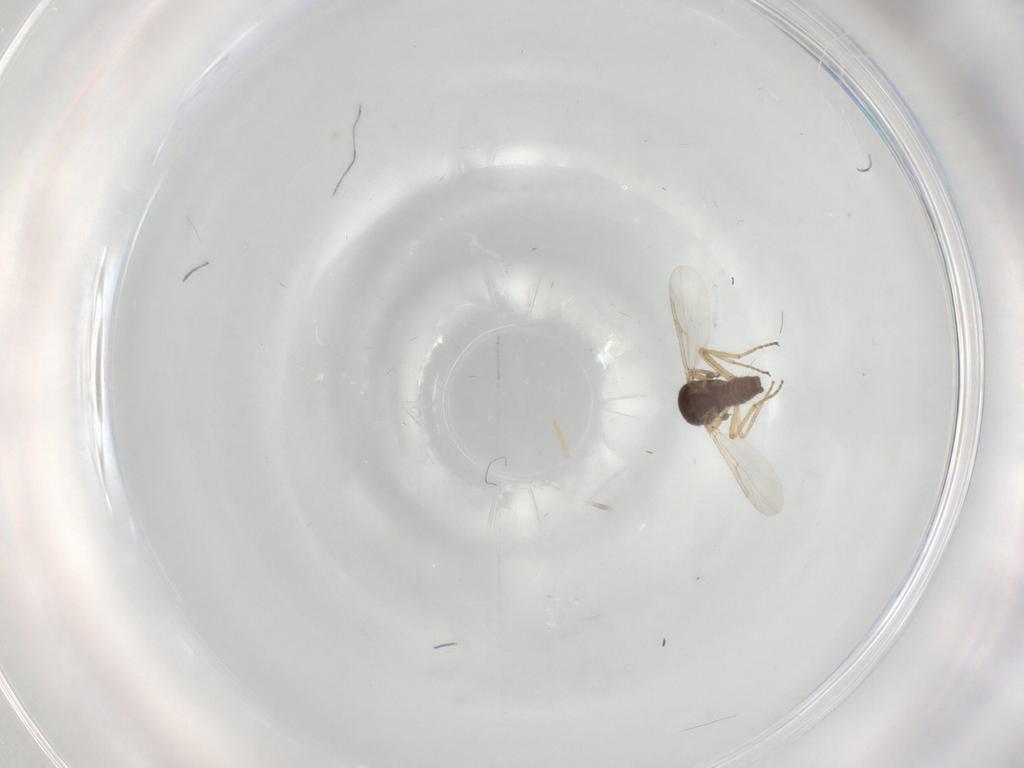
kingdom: Animalia
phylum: Arthropoda
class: Insecta
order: Diptera
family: Ceratopogonidae
